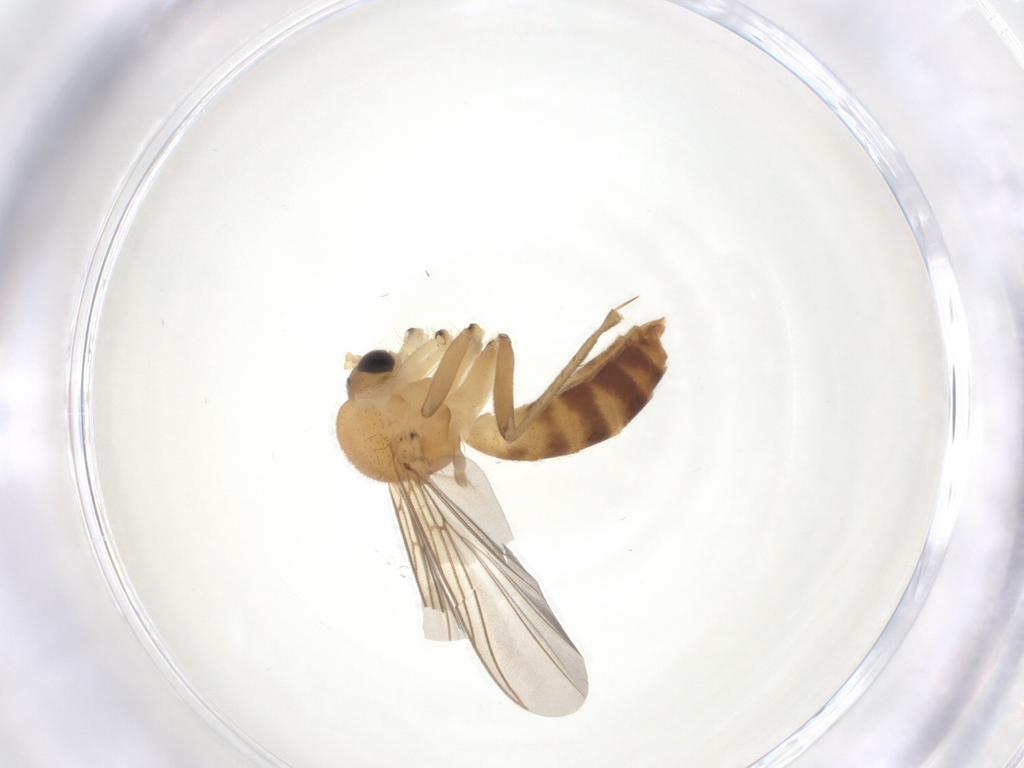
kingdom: Animalia
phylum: Arthropoda
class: Insecta
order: Diptera
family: Mycetophilidae
